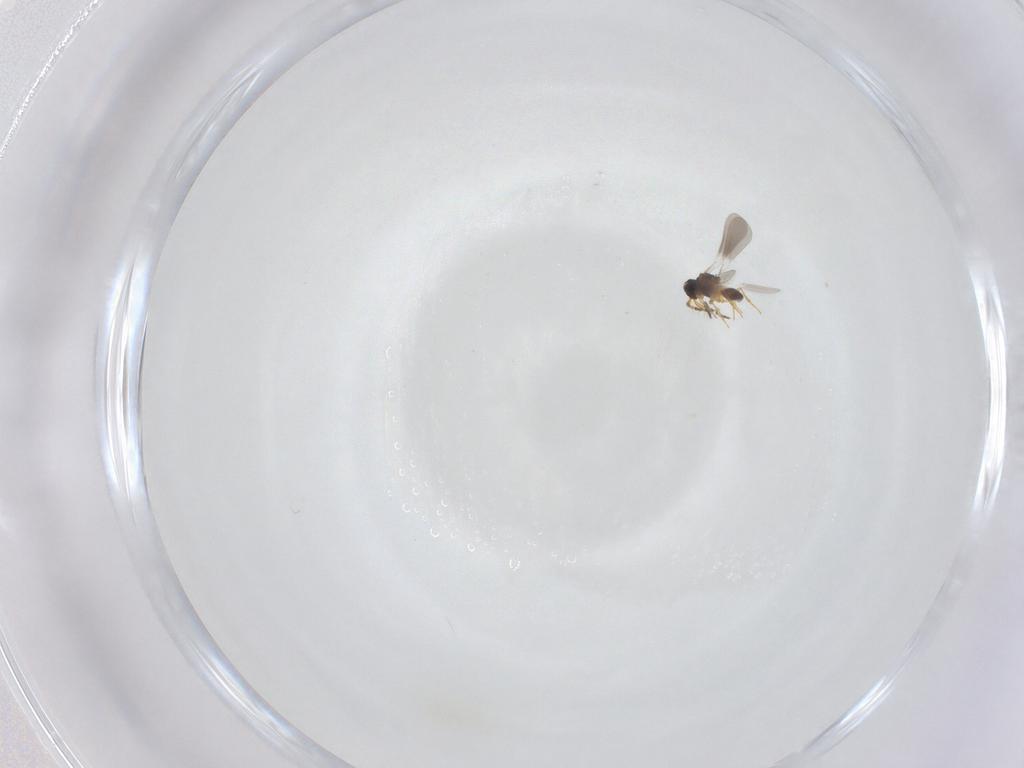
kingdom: Animalia
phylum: Arthropoda
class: Insecta
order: Hymenoptera
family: Platygastridae
